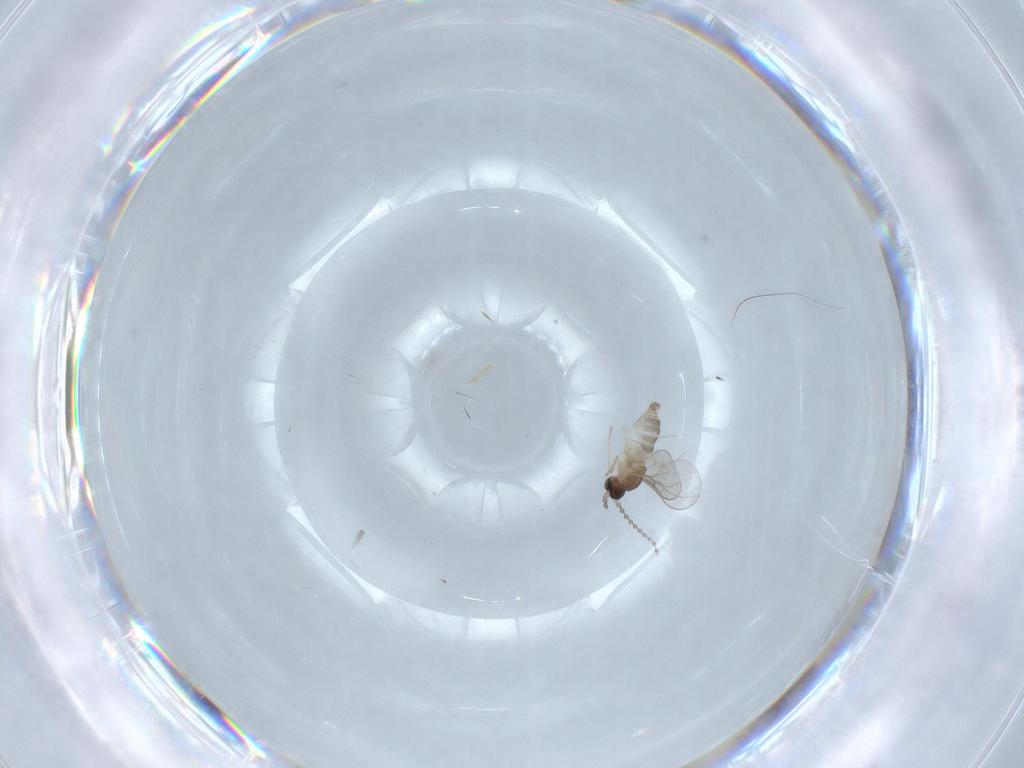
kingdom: Animalia
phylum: Arthropoda
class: Insecta
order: Diptera
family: Cecidomyiidae
